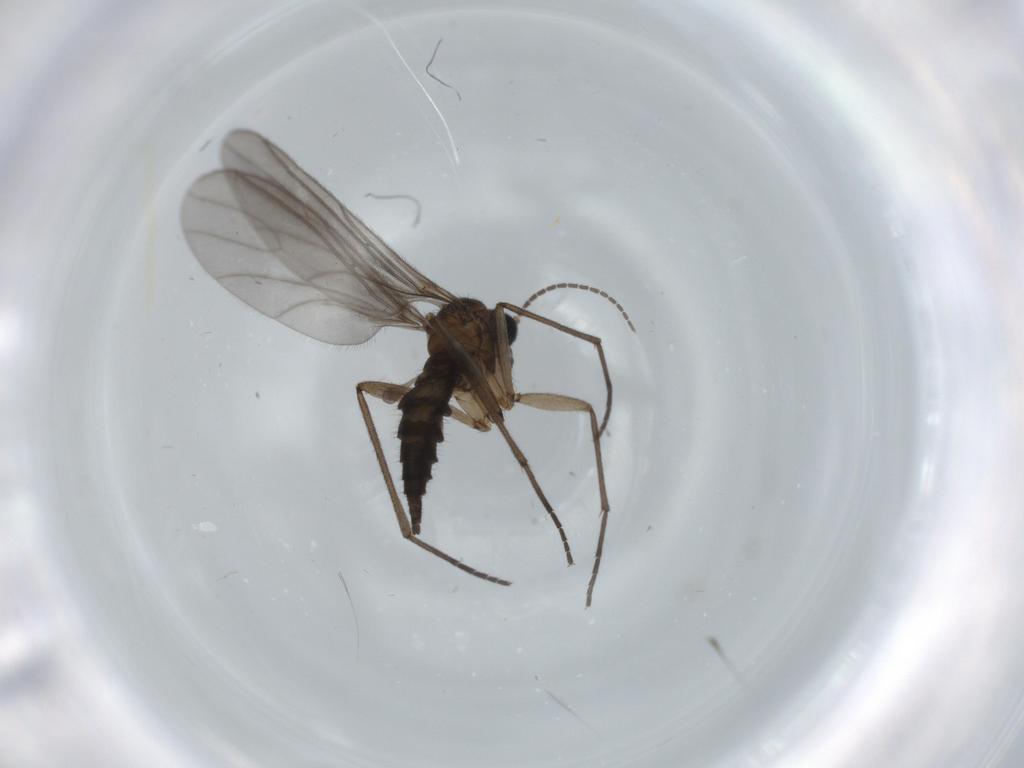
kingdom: Animalia
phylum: Arthropoda
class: Insecta
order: Diptera
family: Sciaridae
